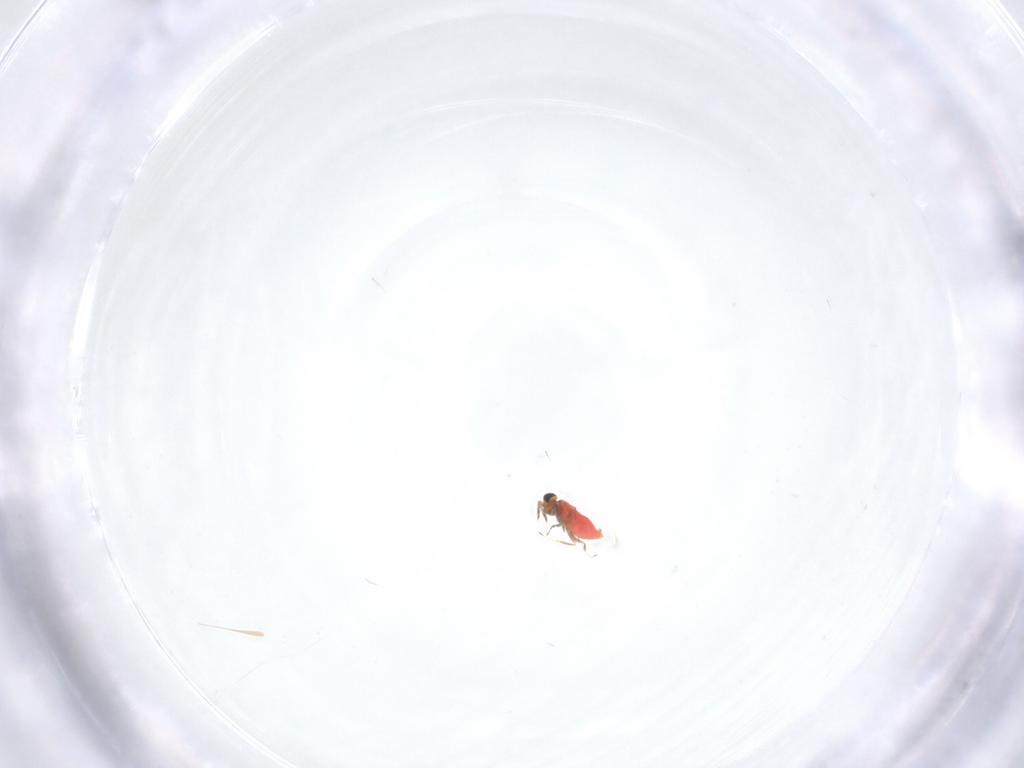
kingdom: Animalia
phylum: Arthropoda
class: Insecta
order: Hymenoptera
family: Trichogrammatidae
